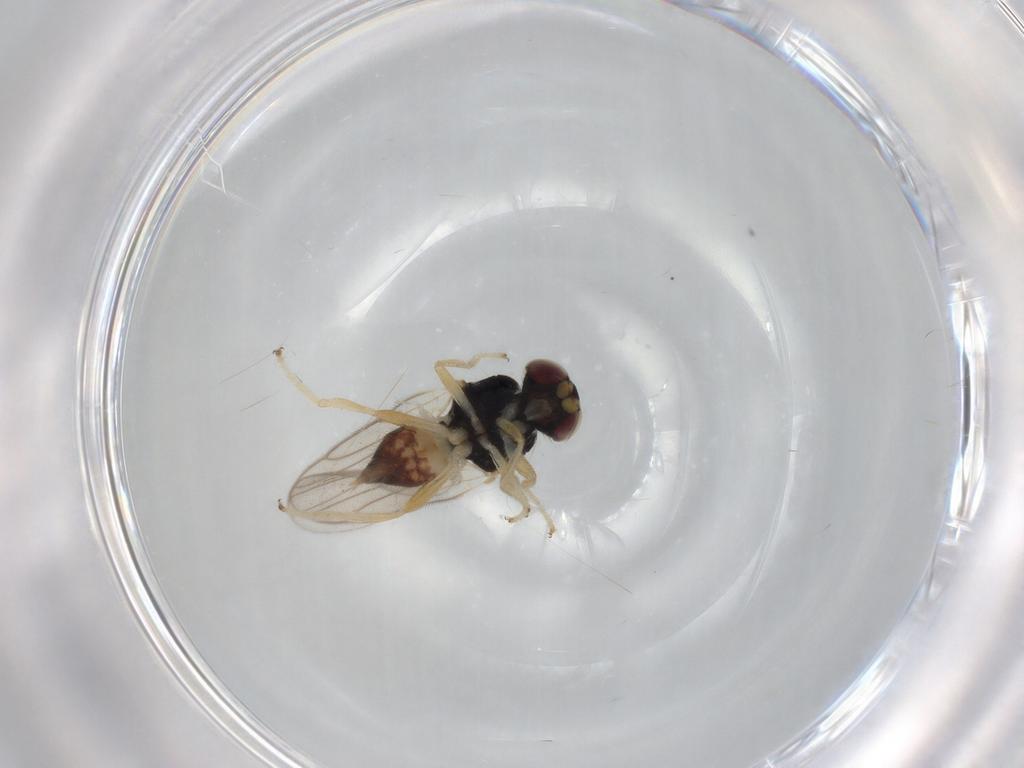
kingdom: Animalia
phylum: Arthropoda
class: Insecta
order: Diptera
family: Chloropidae
